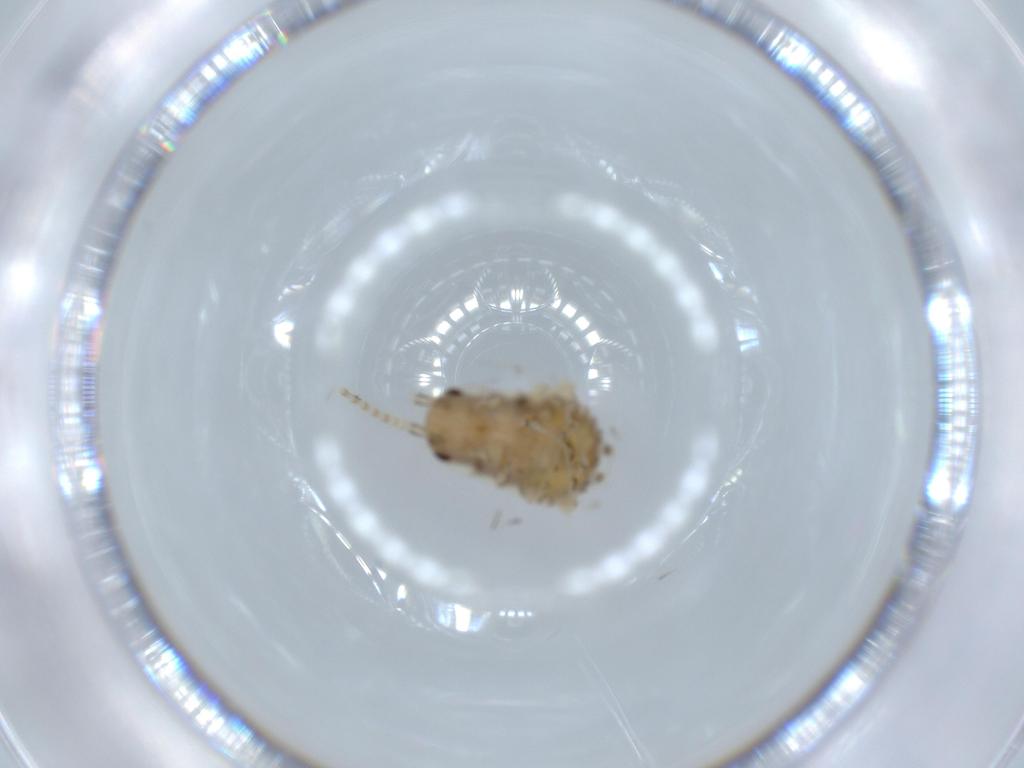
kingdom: Animalia
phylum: Arthropoda
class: Insecta
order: Blattodea
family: Ectobiidae
